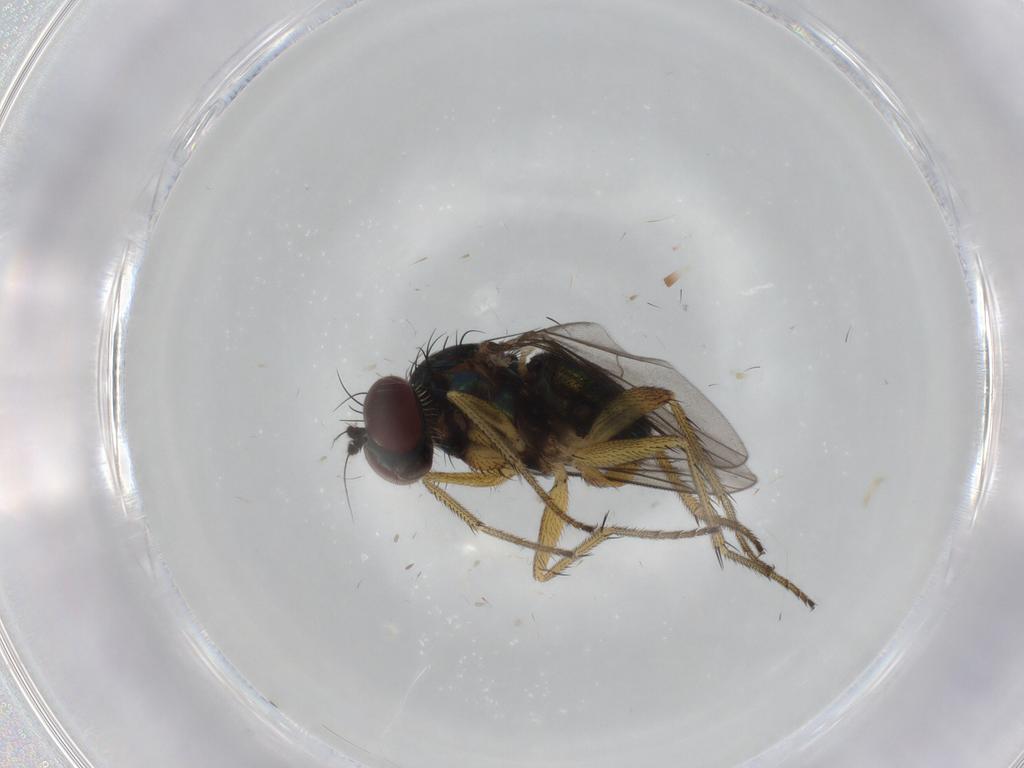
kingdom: Animalia
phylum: Arthropoda
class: Insecta
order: Diptera
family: Dolichopodidae
